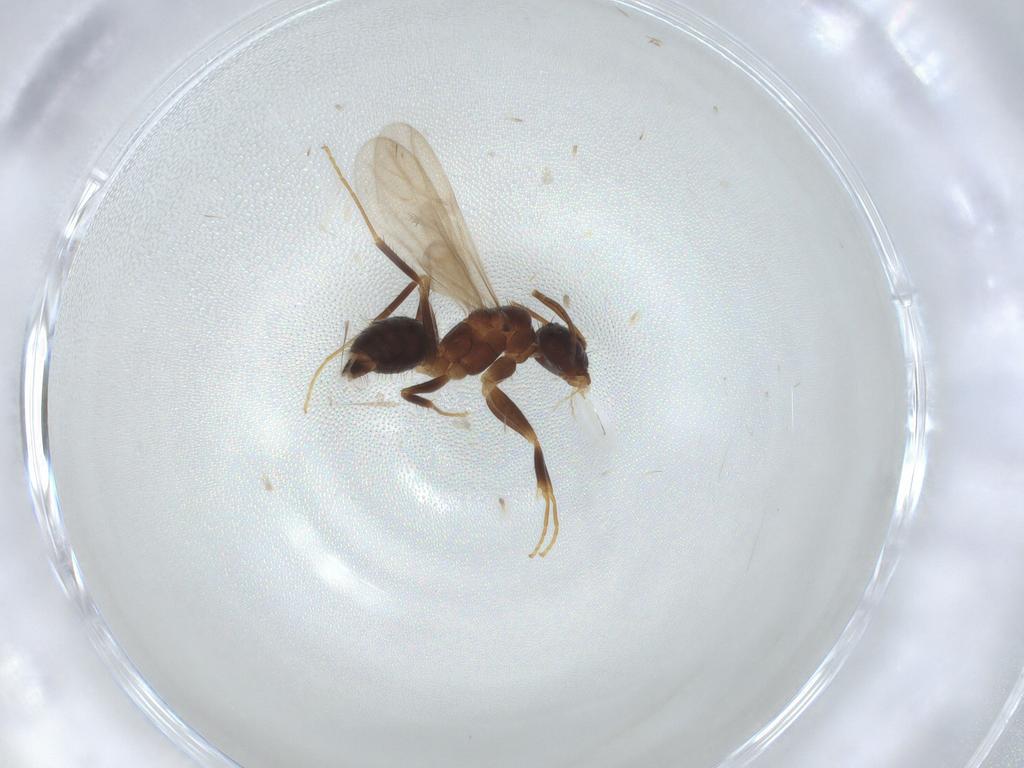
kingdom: Animalia
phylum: Arthropoda
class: Insecta
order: Hymenoptera
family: Formicidae
